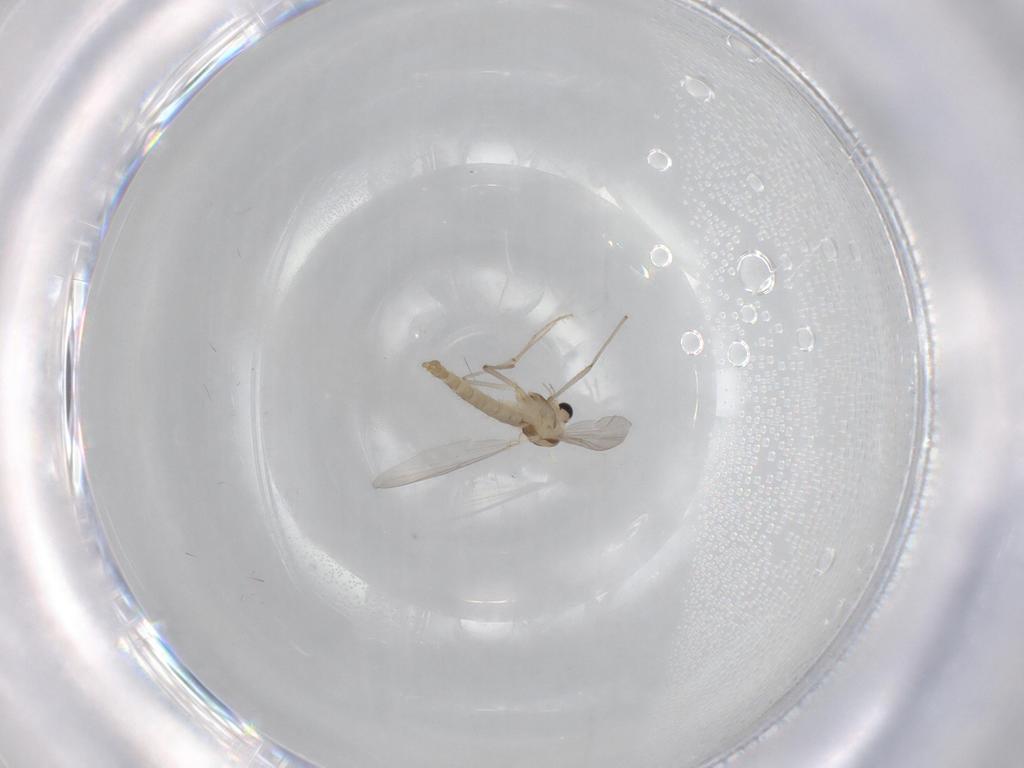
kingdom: Animalia
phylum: Arthropoda
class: Insecta
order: Diptera
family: Chironomidae
